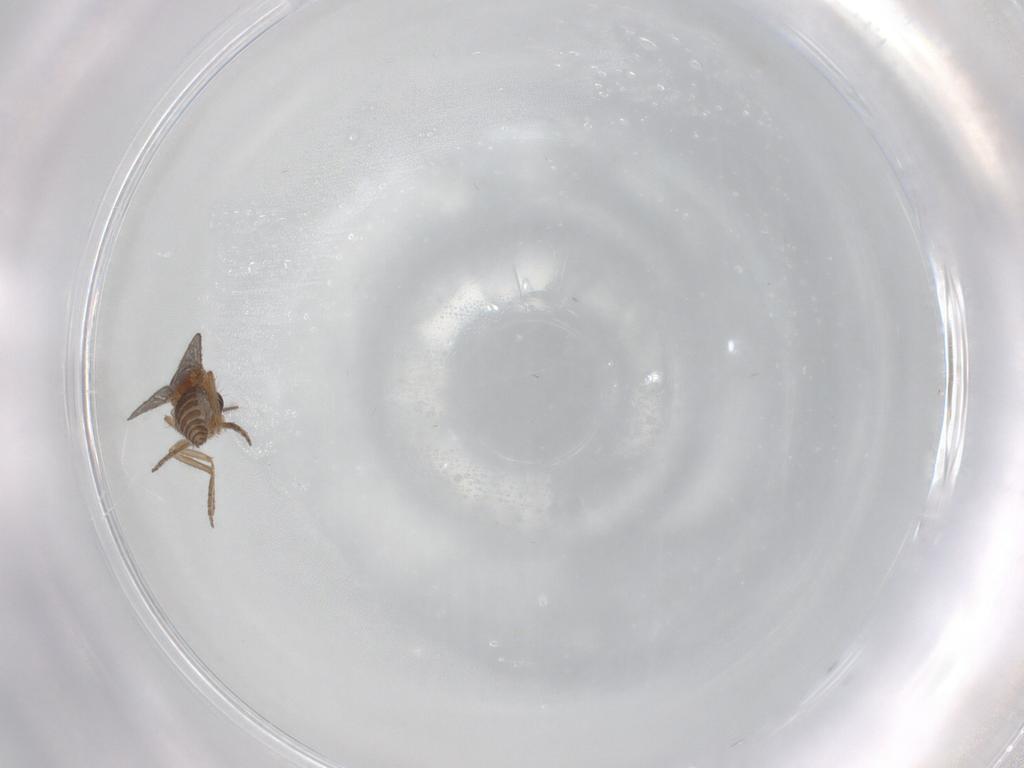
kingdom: Animalia
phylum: Arthropoda
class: Insecta
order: Diptera
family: Ceratopogonidae
